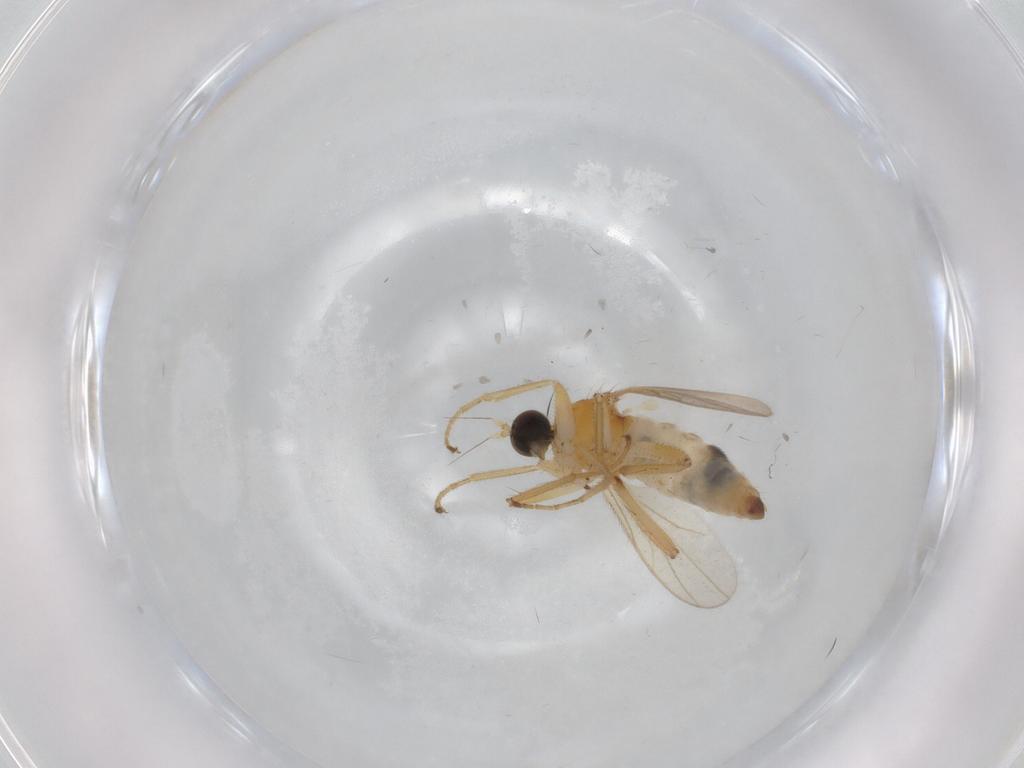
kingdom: Animalia
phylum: Arthropoda
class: Insecta
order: Diptera
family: Hybotidae
